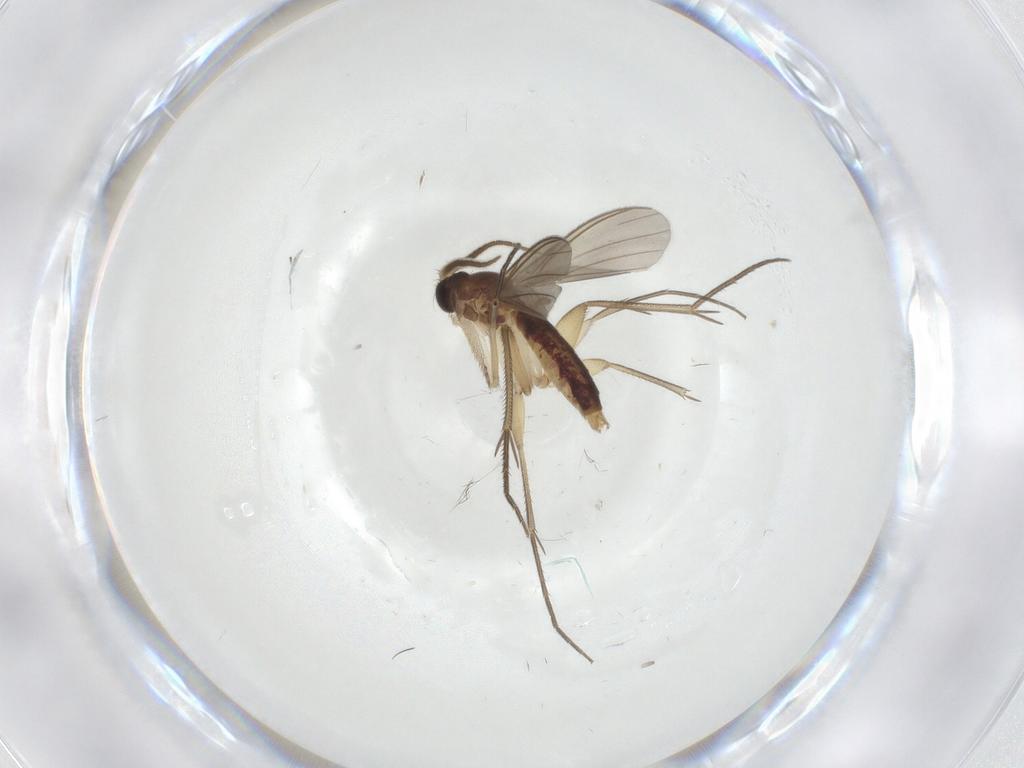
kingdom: Animalia
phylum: Arthropoda
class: Insecta
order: Diptera
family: Mycetophilidae
